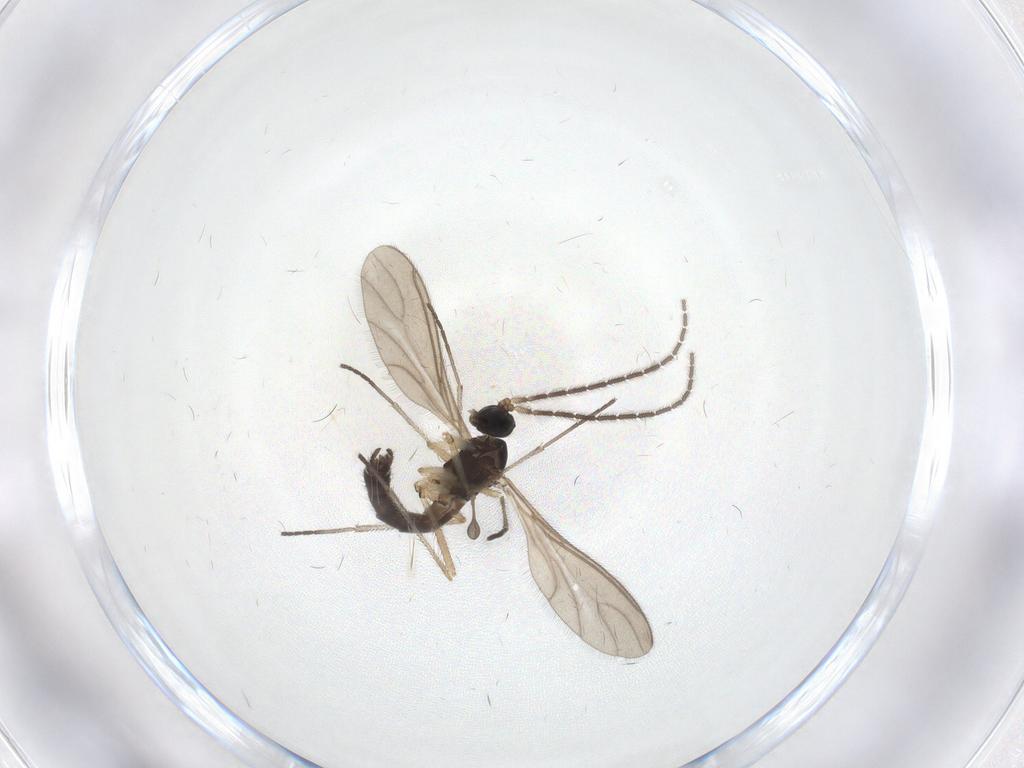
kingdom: Animalia
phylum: Arthropoda
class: Insecta
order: Diptera
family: Sciaridae
